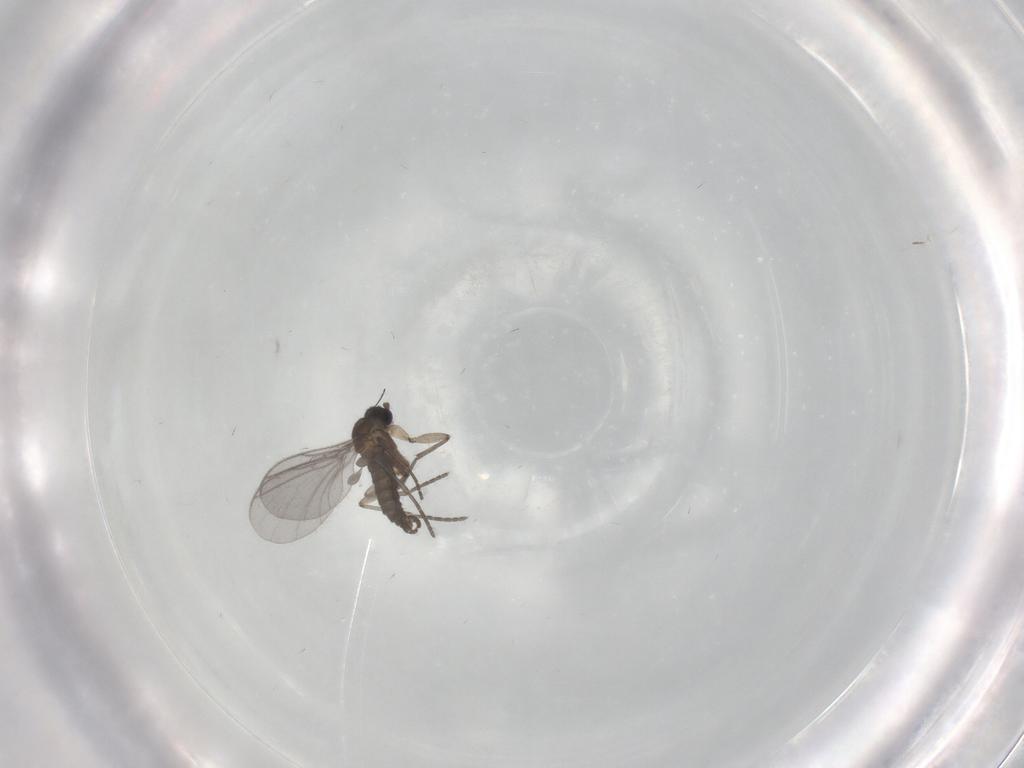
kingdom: Animalia
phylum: Arthropoda
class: Insecta
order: Diptera
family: Sciaridae
